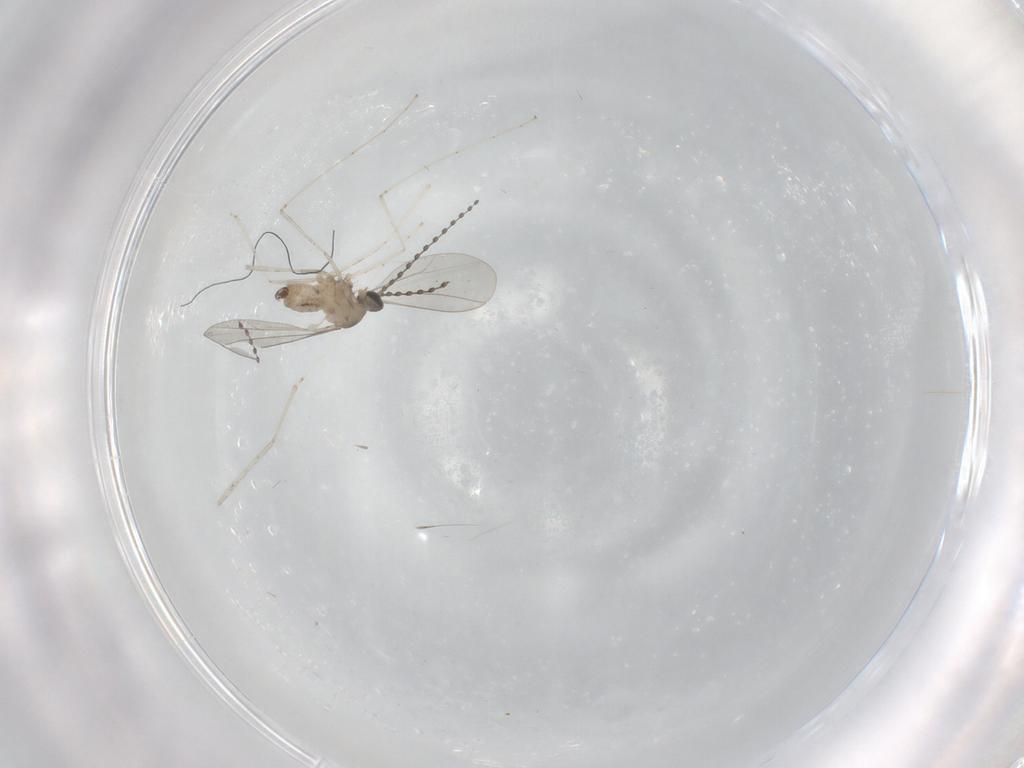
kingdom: Animalia
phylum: Arthropoda
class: Insecta
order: Diptera
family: Cecidomyiidae
